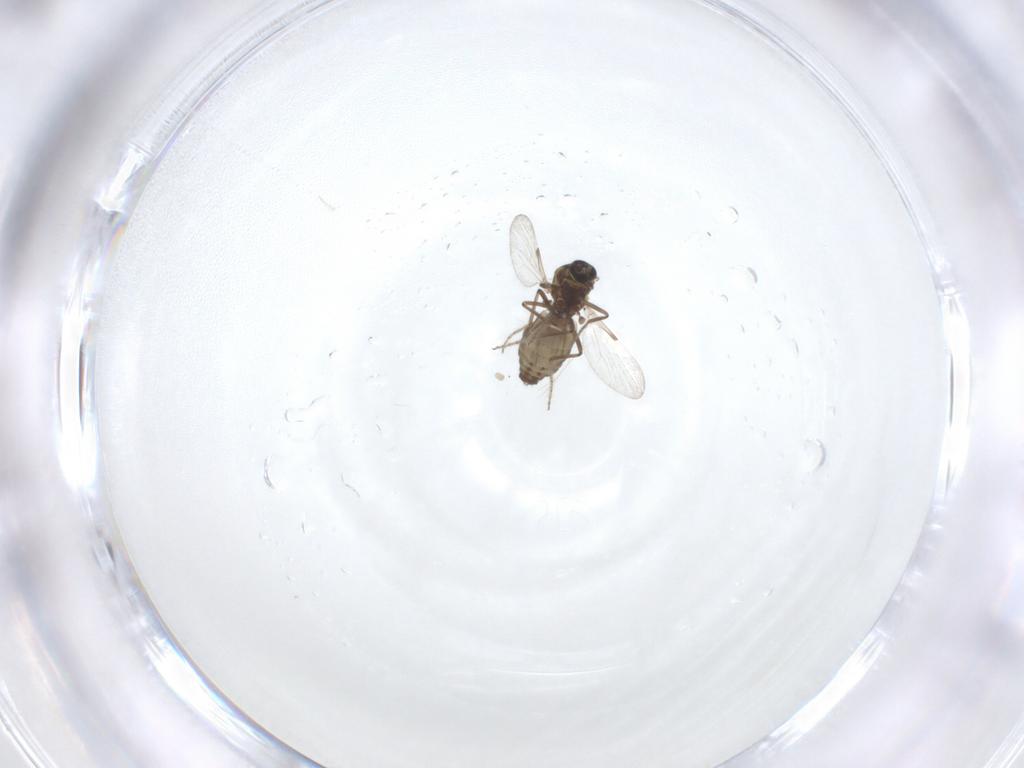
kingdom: Animalia
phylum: Arthropoda
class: Insecta
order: Diptera
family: Ceratopogonidae
